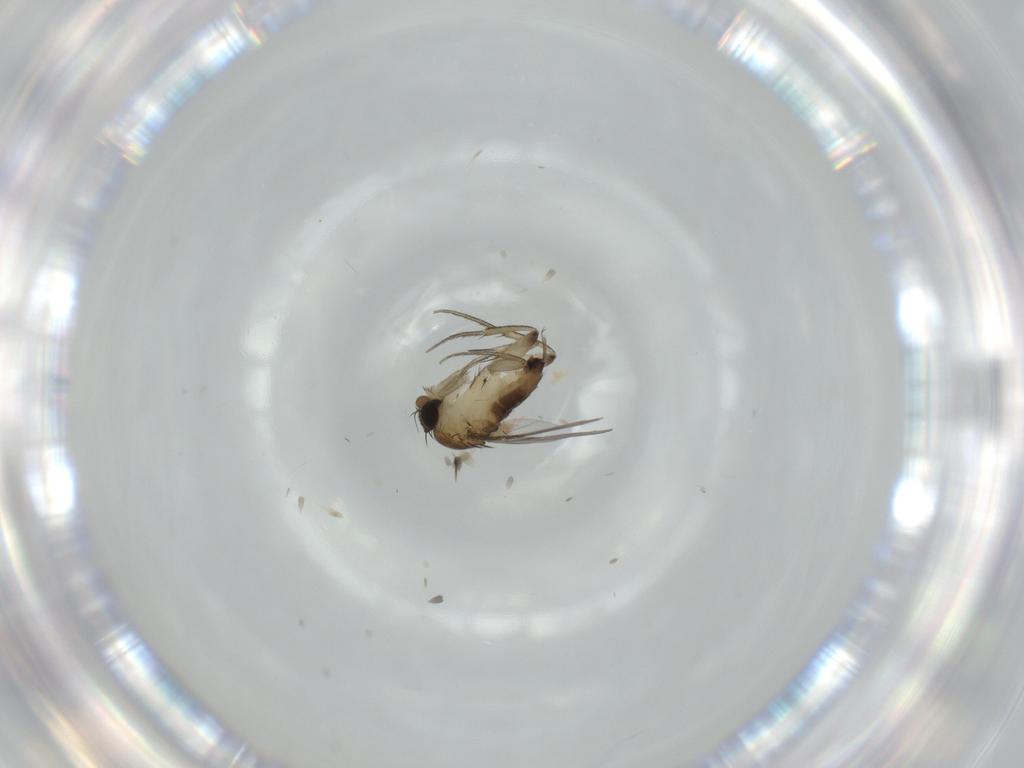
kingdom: Animalia
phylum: Arthropoda
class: Insecta
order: Diptera
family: Phoridae
